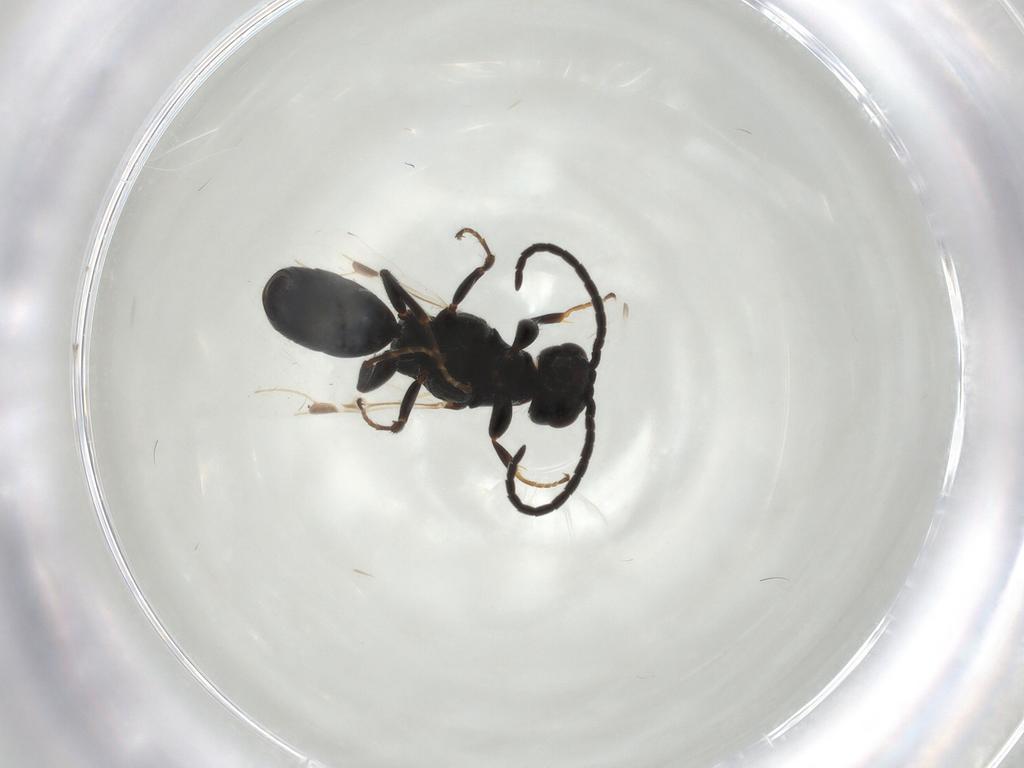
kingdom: Animalia
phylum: Arthropoda
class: Insecta
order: Hymenoptera
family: Bethylidae
